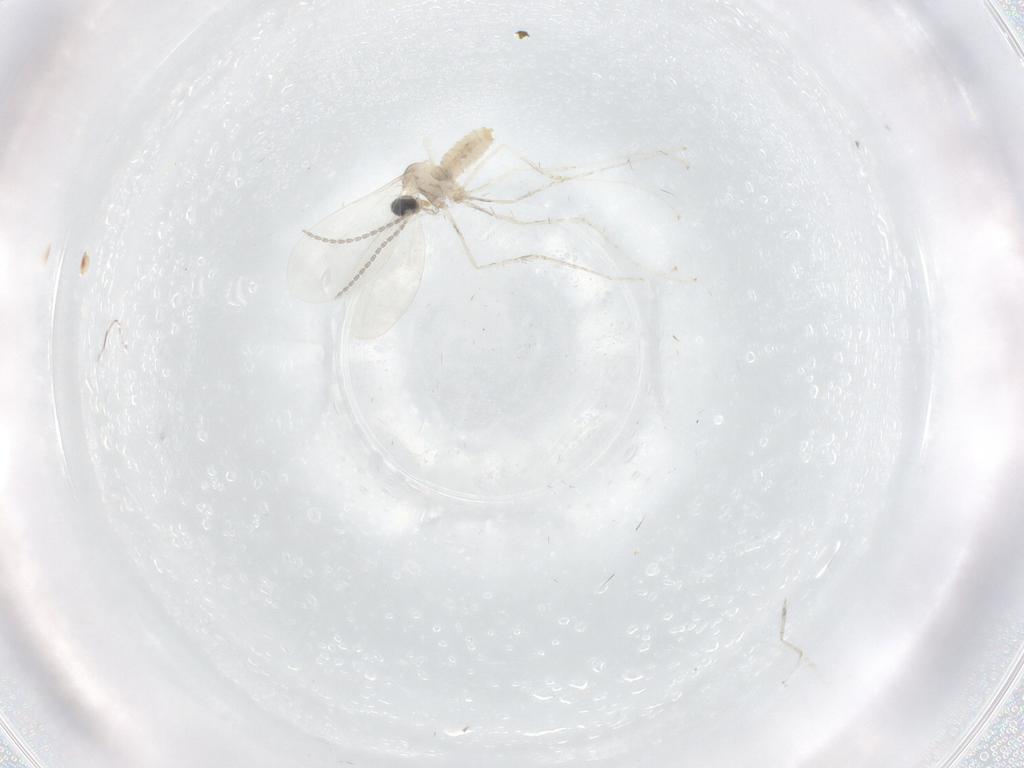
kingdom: Animalia
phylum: Arthropoda
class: Insecta
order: Diptera
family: Cecidomyiidae
